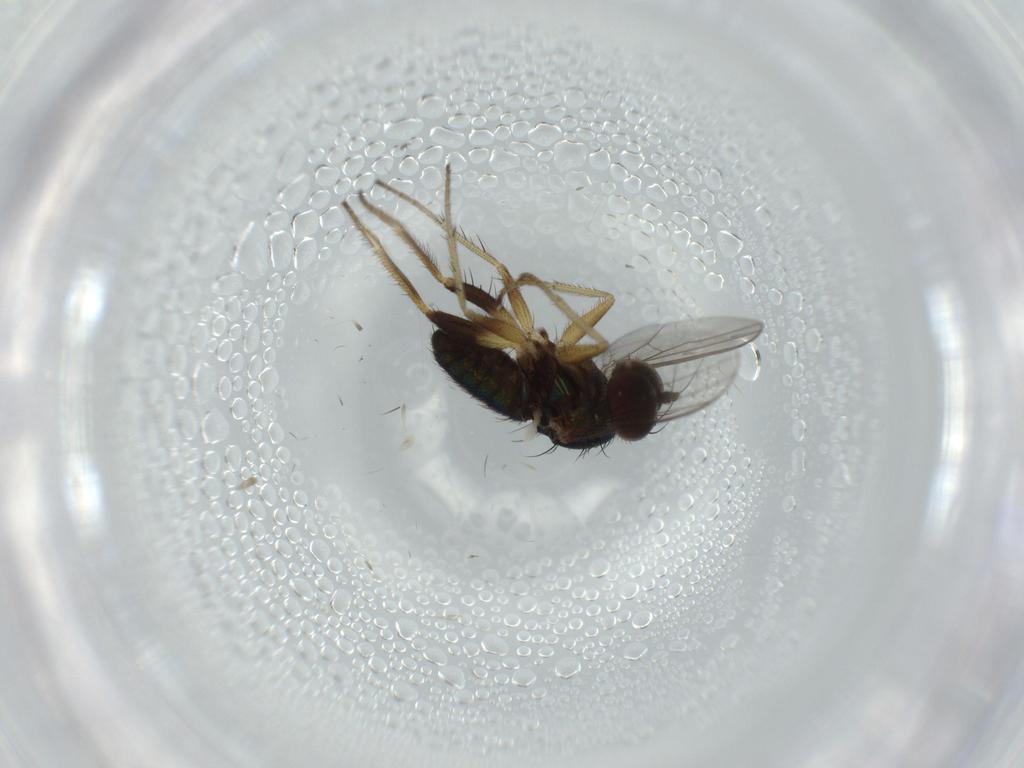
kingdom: Animalia
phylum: Arthropoda
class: Insecta
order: Diptera
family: Dolichopodidae
